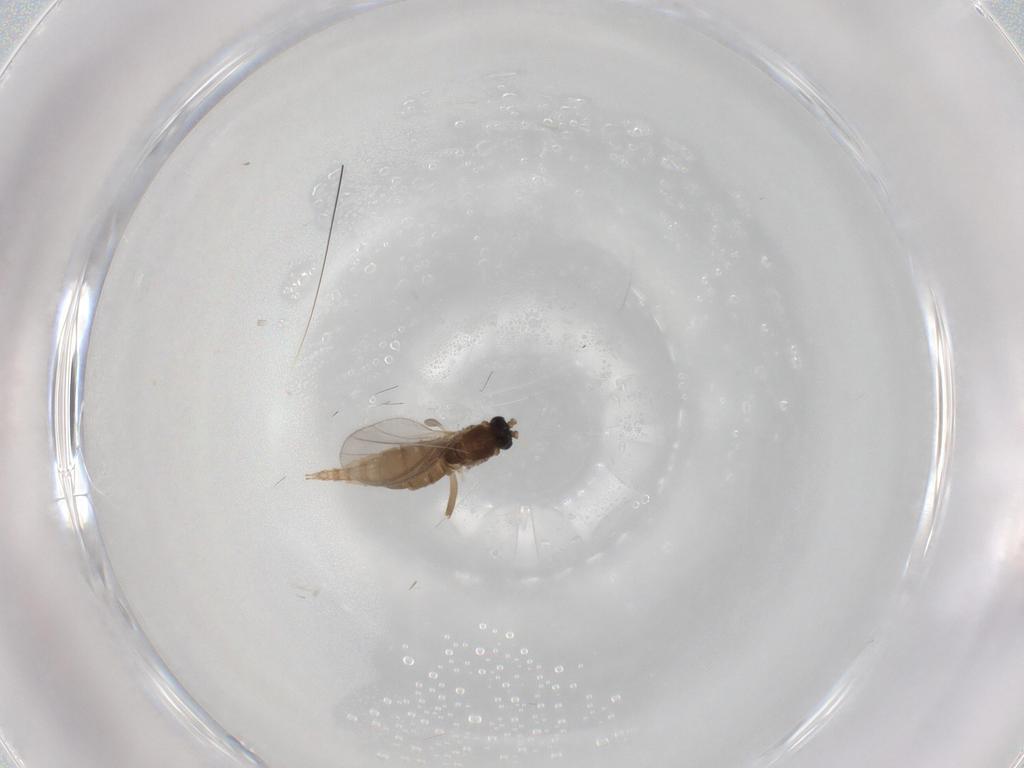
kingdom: Animalia
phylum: Arthropoda
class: Insecta
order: Diptera
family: Sciaridae
